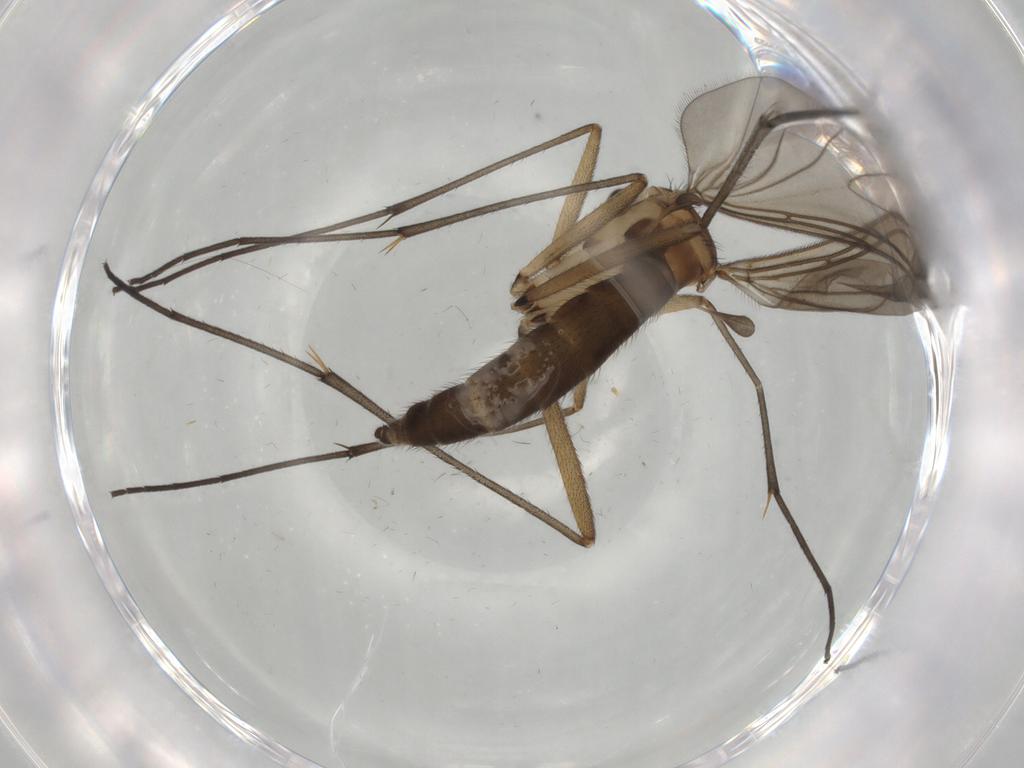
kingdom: Animalia
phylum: Arthropoda
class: Insecta
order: Diptera
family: Sciaridae
